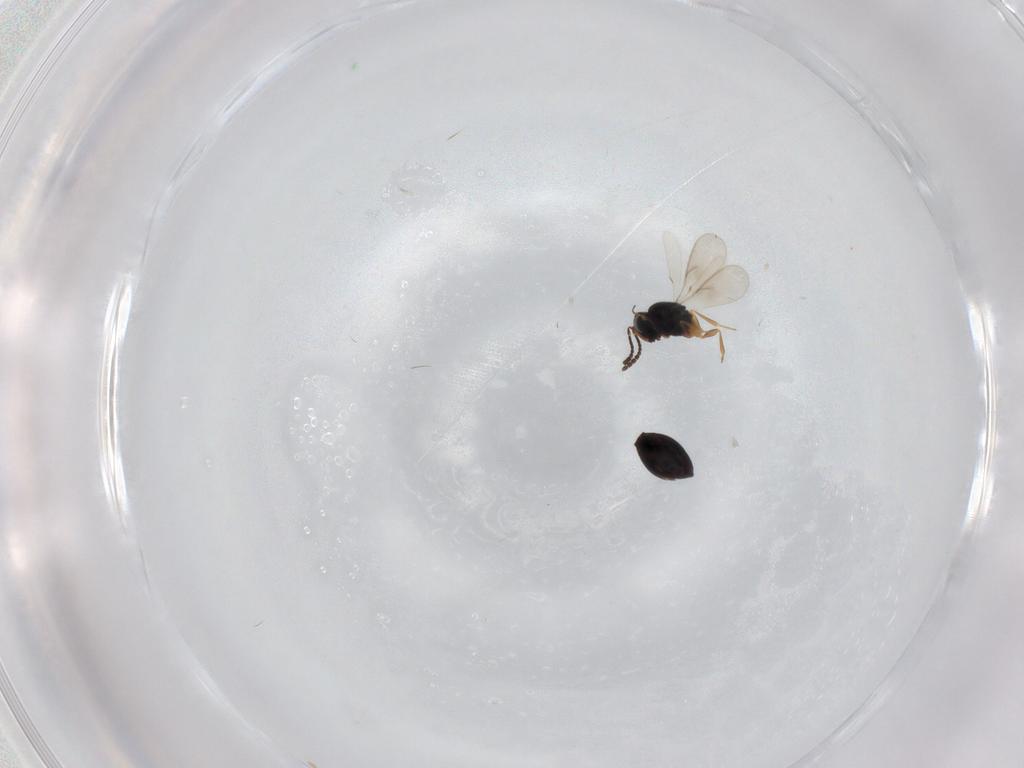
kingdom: Animalia
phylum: Arthropoda
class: Insecta
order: Hymenoptera
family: Scelionidae
